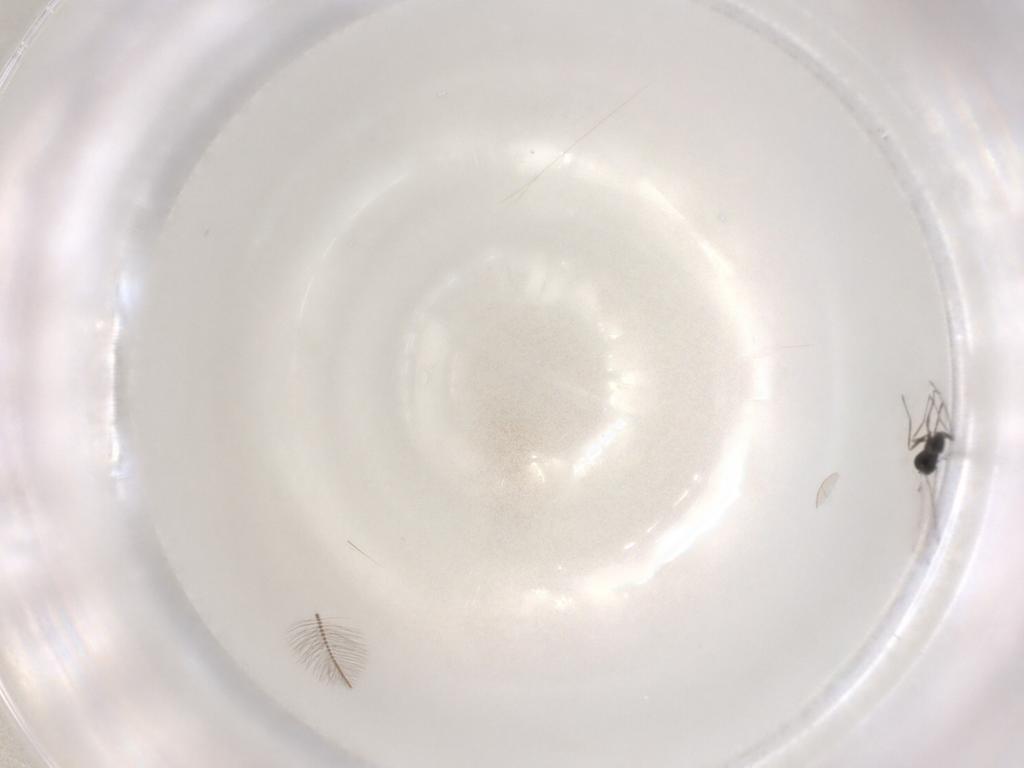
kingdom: Animalia
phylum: Arthropoda
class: Insecta
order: Hymenoptera
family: Mymaridae
